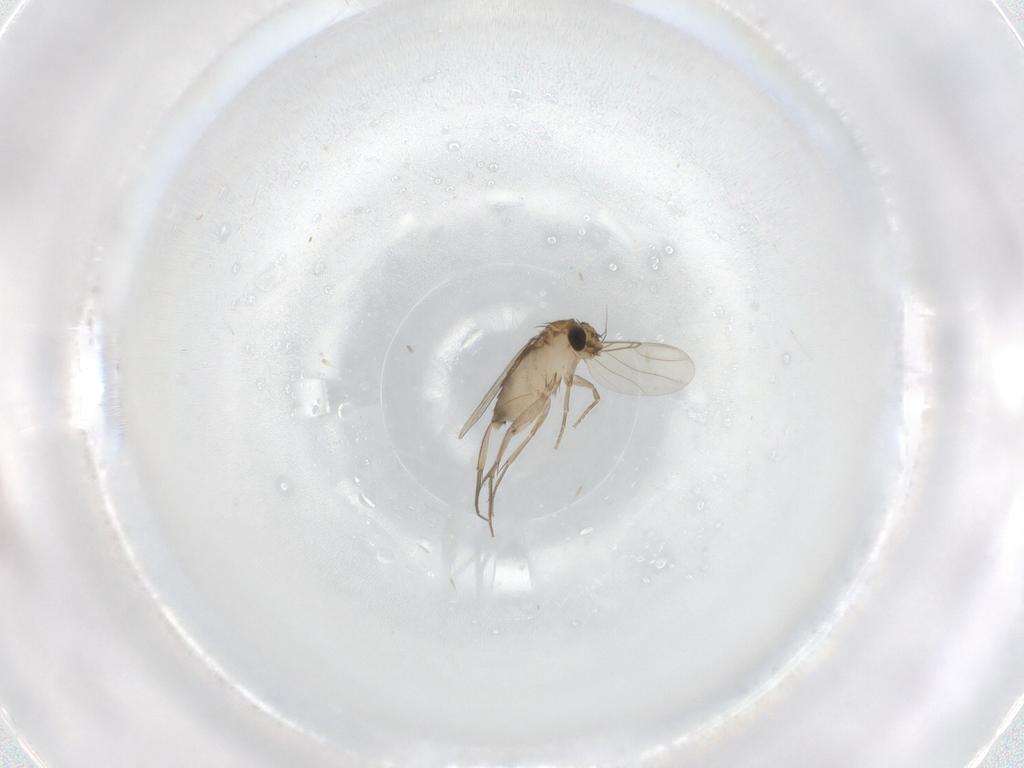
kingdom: Animalia
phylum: Arthropoda
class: Insecta
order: Diptera
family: Phoridae
